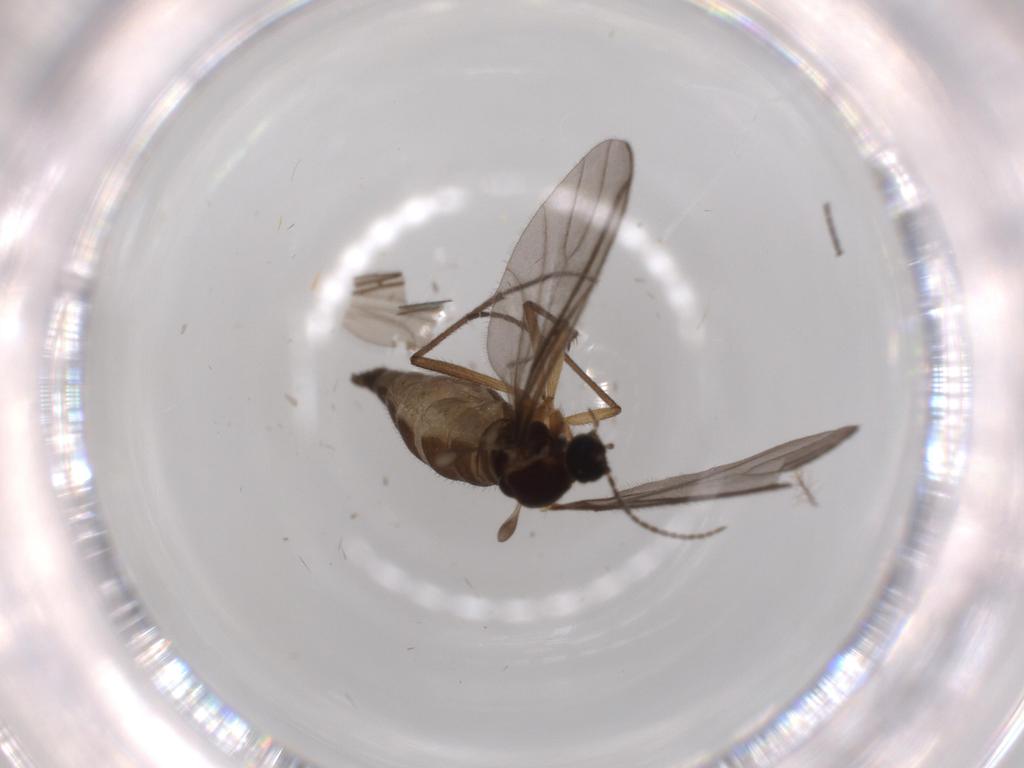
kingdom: Animalia
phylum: Arthropoda
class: Insecta
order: Diptera
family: Sciaridae
